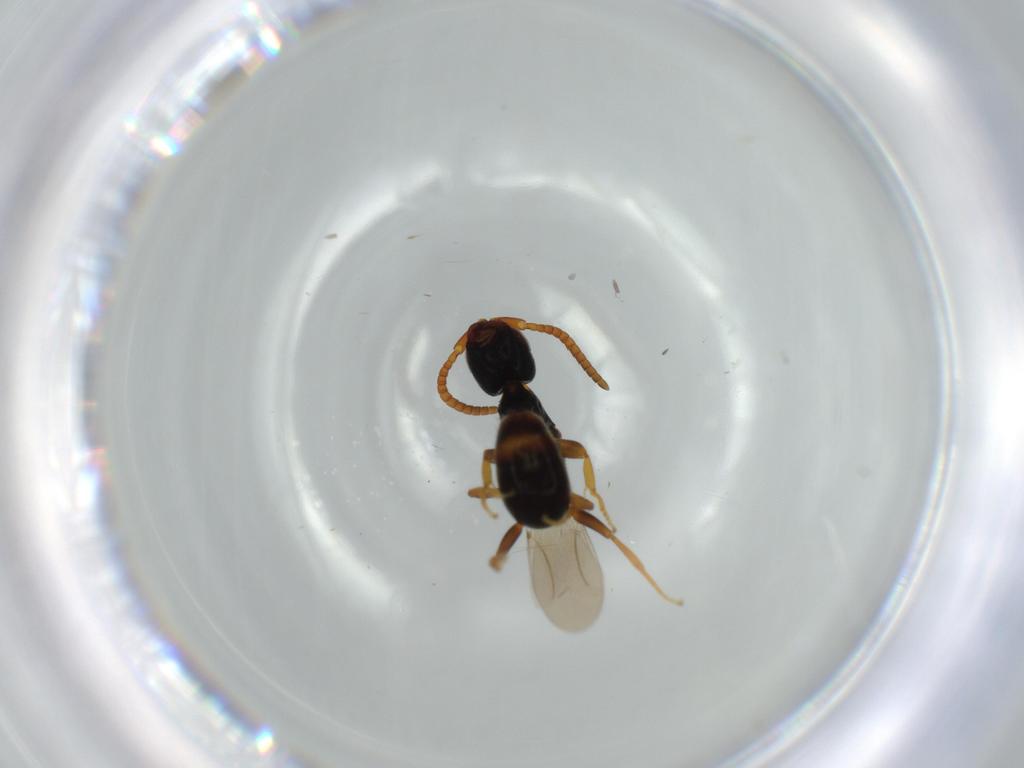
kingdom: Animalia
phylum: Arthropoda
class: Insecta
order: Hymenoptera
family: Bethylidae
